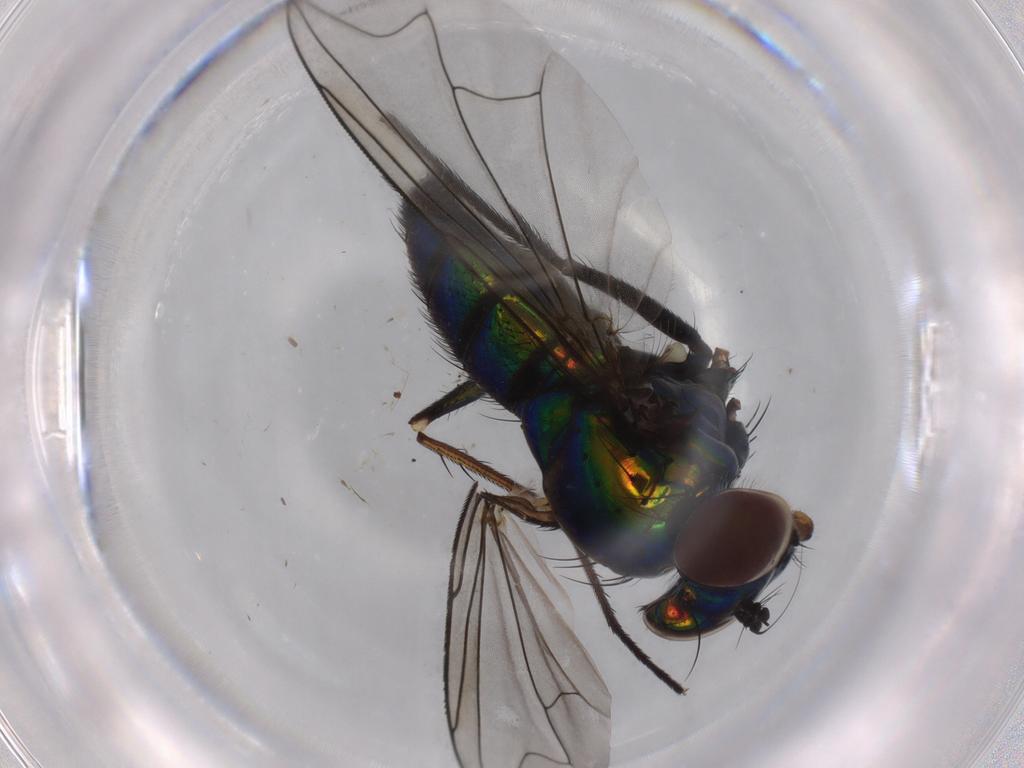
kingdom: Animalia
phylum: Arthropoda
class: Insecta
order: Diptera
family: Dolichopodidae
